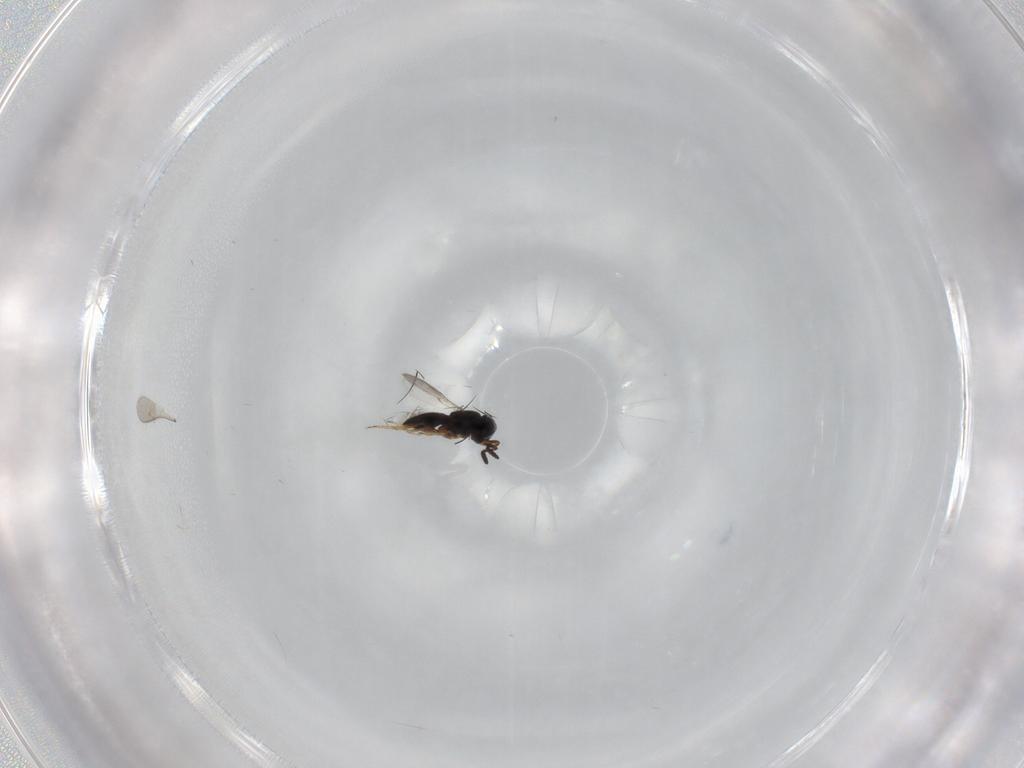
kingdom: Animalia
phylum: Arthropoda
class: Insecta
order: Hymenoptera
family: Scelionidae
